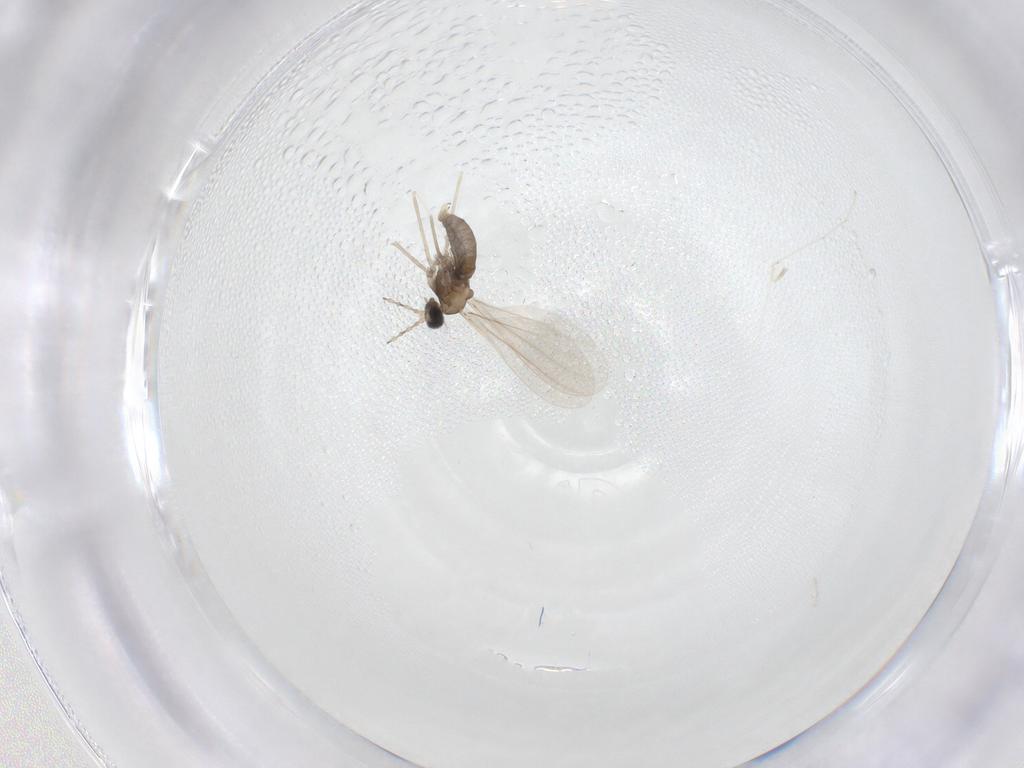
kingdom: Animalia
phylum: Arthropoda
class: Insecta
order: Diptera
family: Cecidomyiidae
